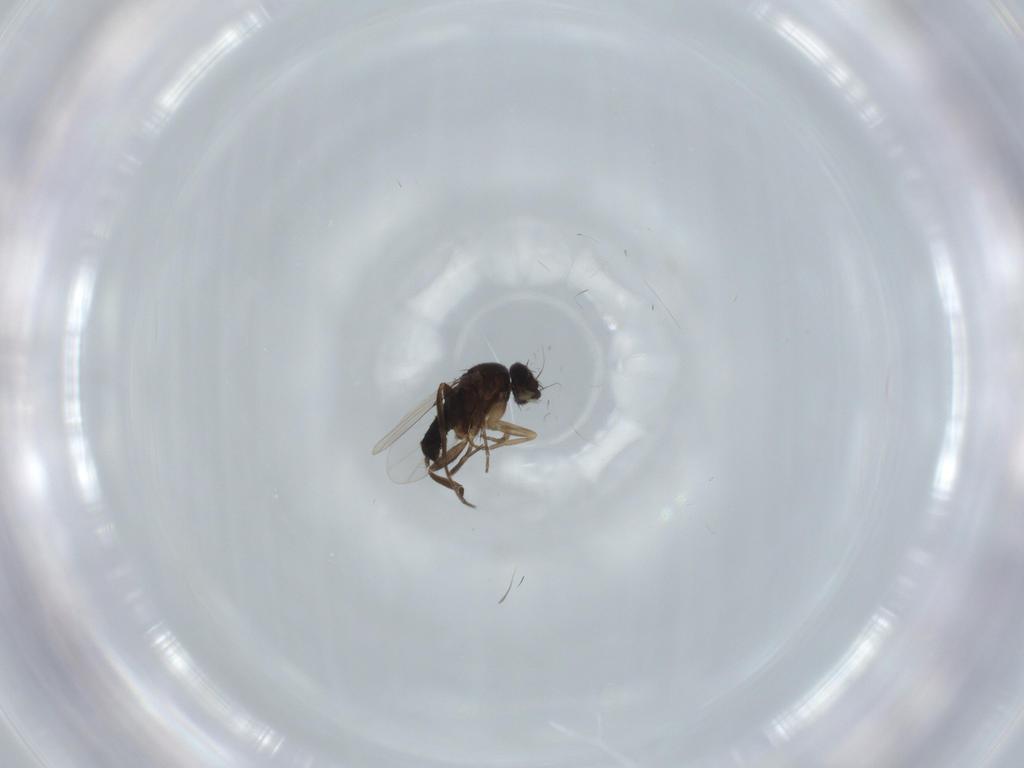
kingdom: Animalia
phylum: Arthropoda
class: Insecta
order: Diptera
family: Phoridae
